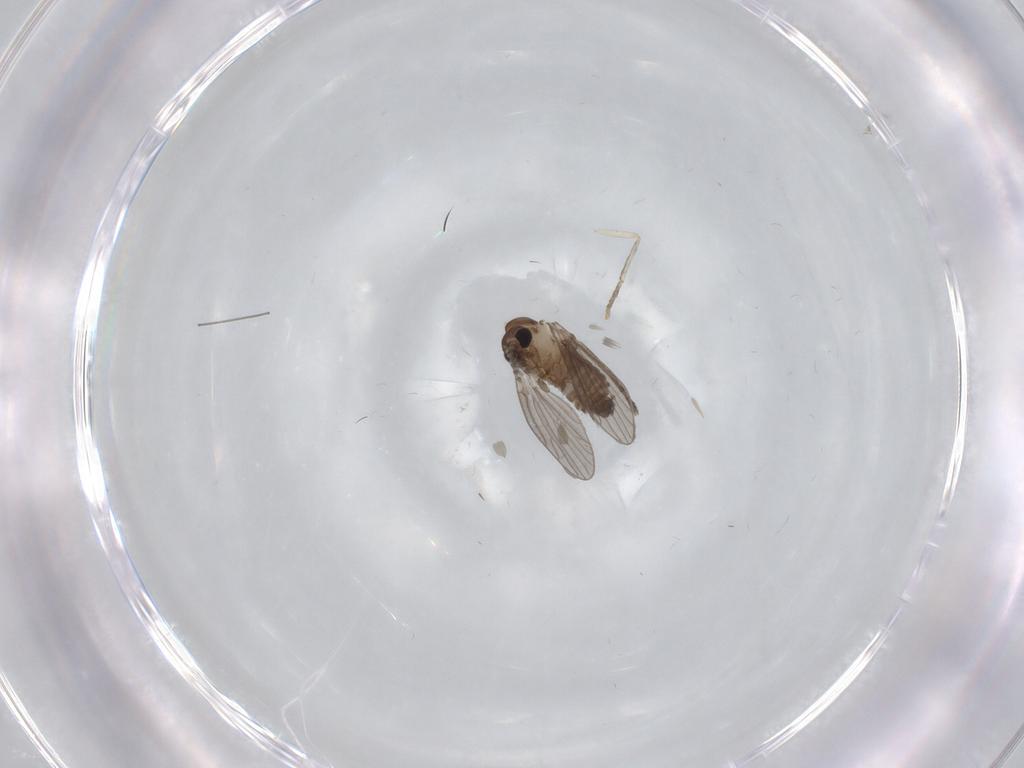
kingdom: Animalia
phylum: Arthropoda
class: Insecta
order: Diptera
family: Psychodidae
